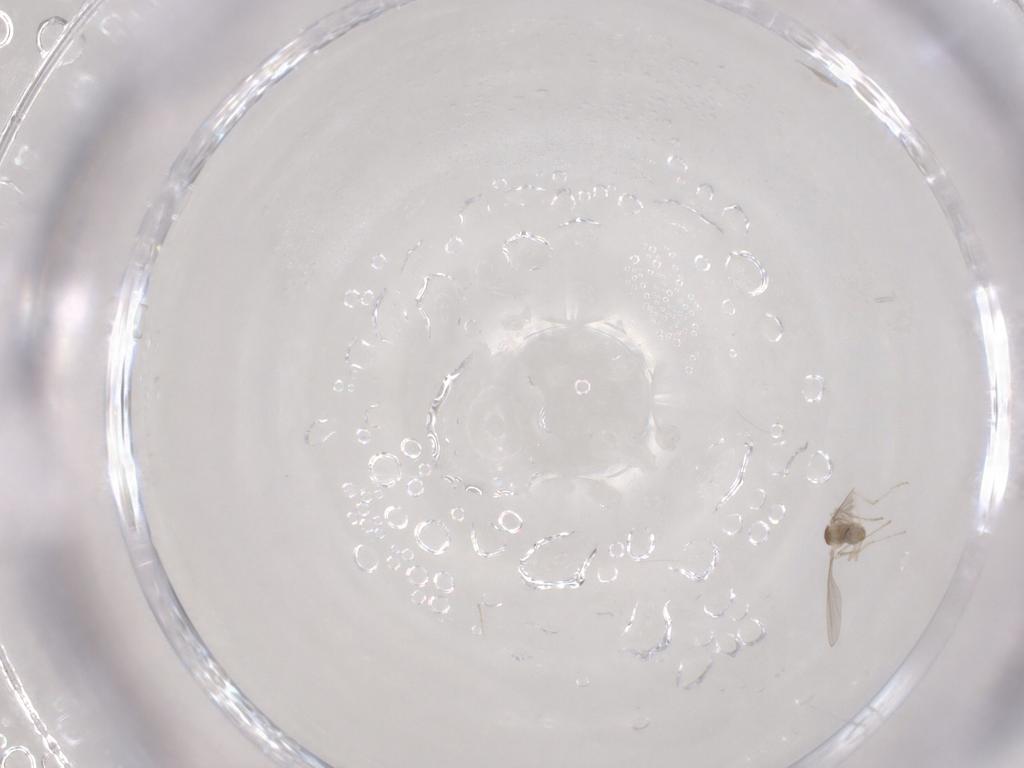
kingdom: Animalia
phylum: Arthropoda
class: Insecta
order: Diptera
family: Cecidomyiidae
